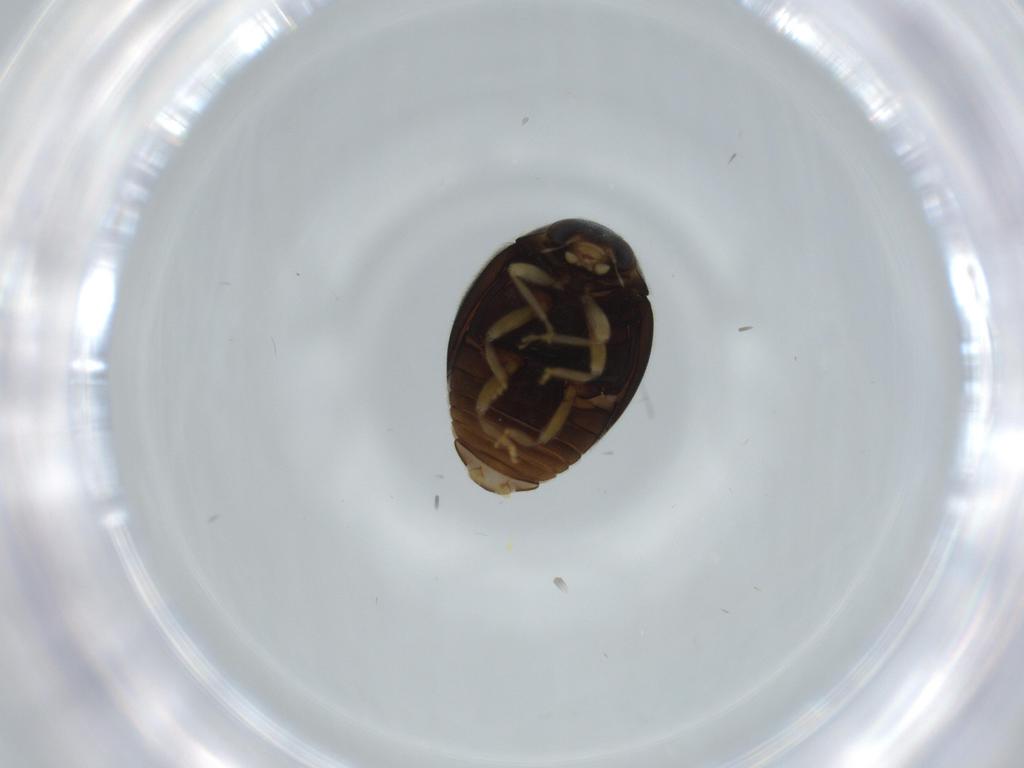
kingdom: Animalia
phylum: Arthropoda
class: Insecta
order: Coleoptera
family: Coccinellidae
